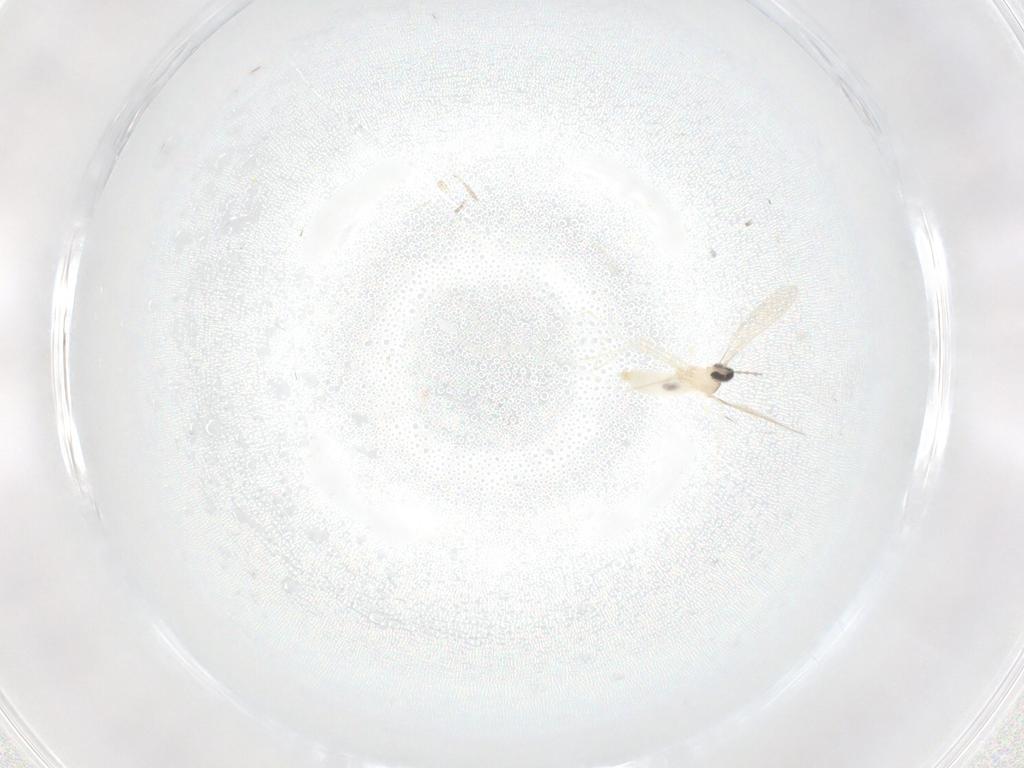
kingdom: Animalia
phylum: Arthropoda
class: Insecta
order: Diptera
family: Cecidomyiidae
